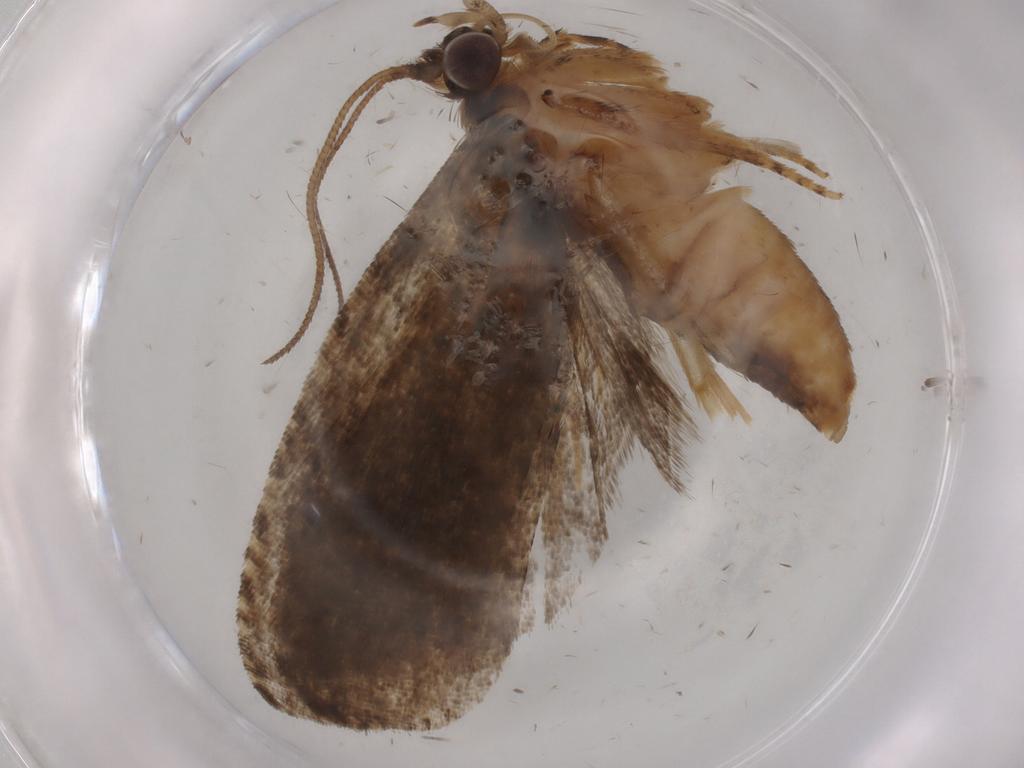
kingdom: Animalia
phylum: Arthropoda
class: Insecta
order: Lepidoptera
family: Tortricidae
